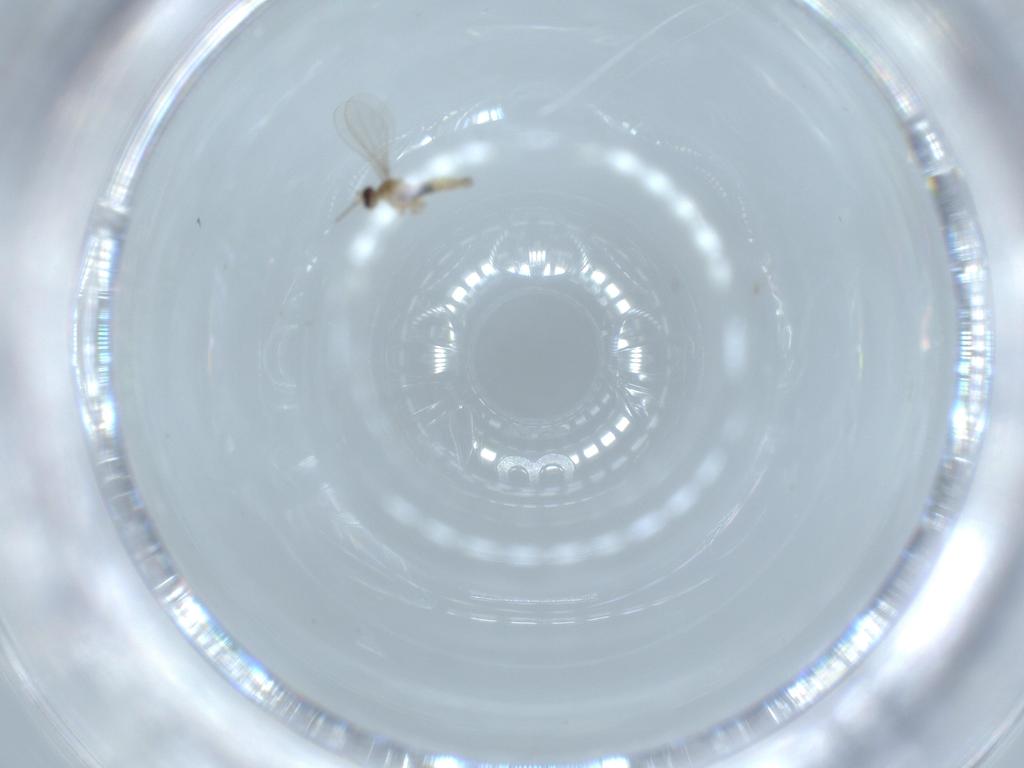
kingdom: Animalia
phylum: Arthropoda
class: Insecta
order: Diptera
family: Cecidomyiidae
